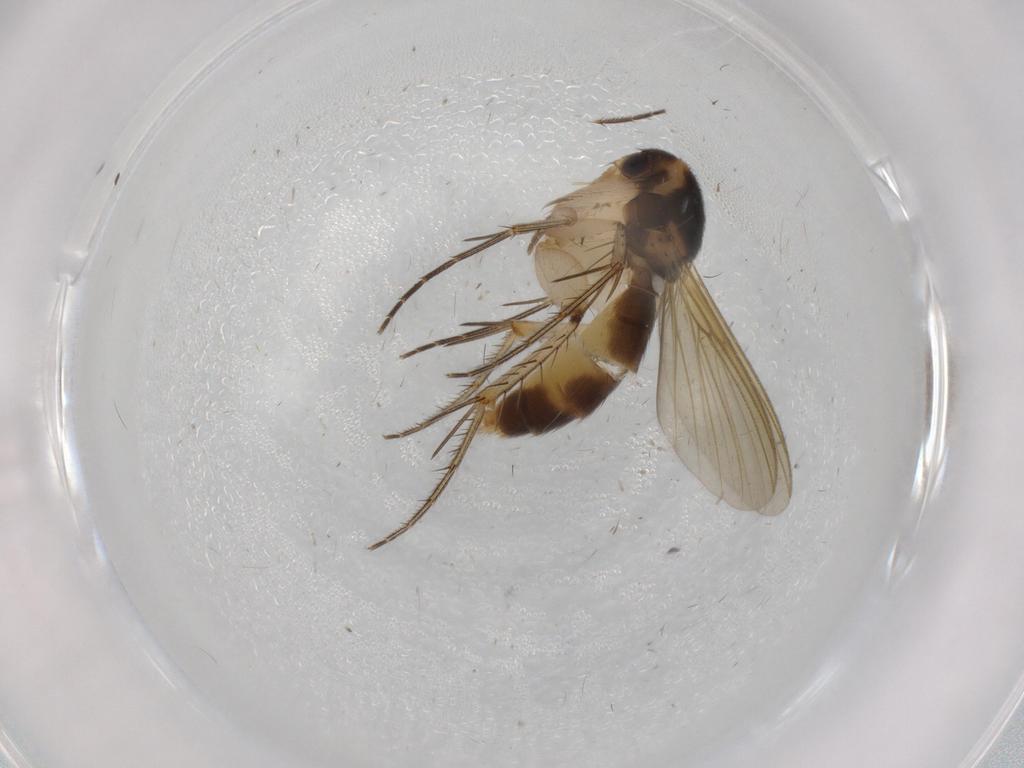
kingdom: Animalia
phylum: Arthropoda
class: Insecta
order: Diptera
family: Mycetophilidae
